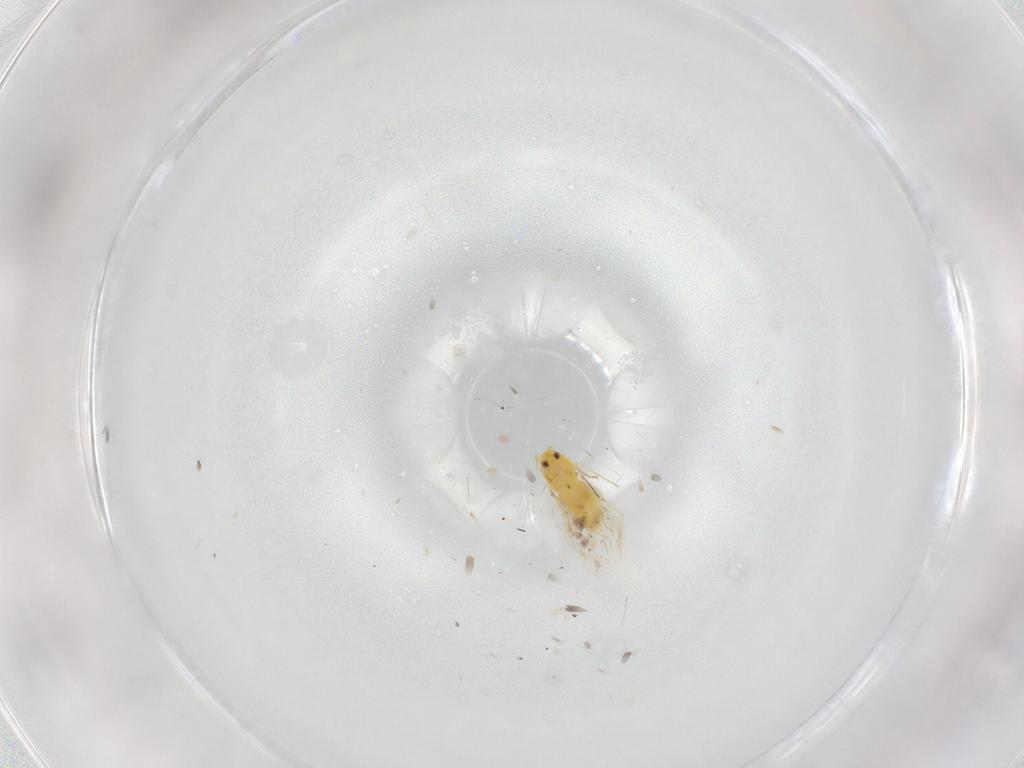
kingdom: Animalia
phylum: Arthropoda
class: Insecta
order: Hemiptera
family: Aleyrodidae
